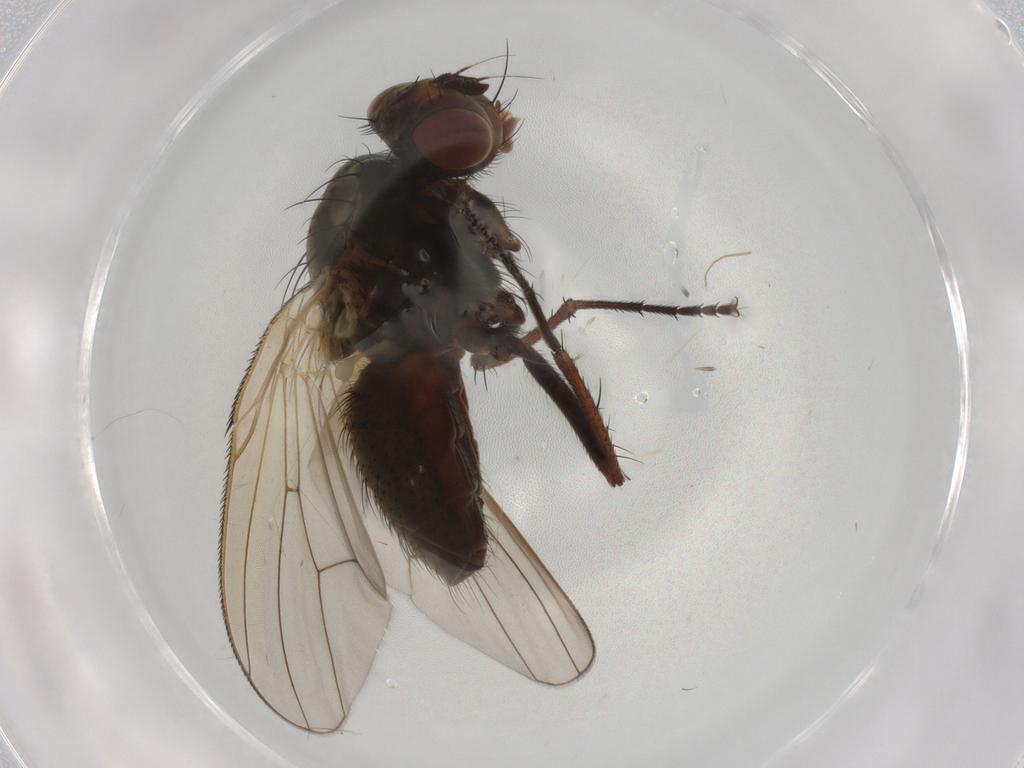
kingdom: Animalia
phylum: Arthropoda
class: Insecta
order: Diptera
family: Anthomyiidae
